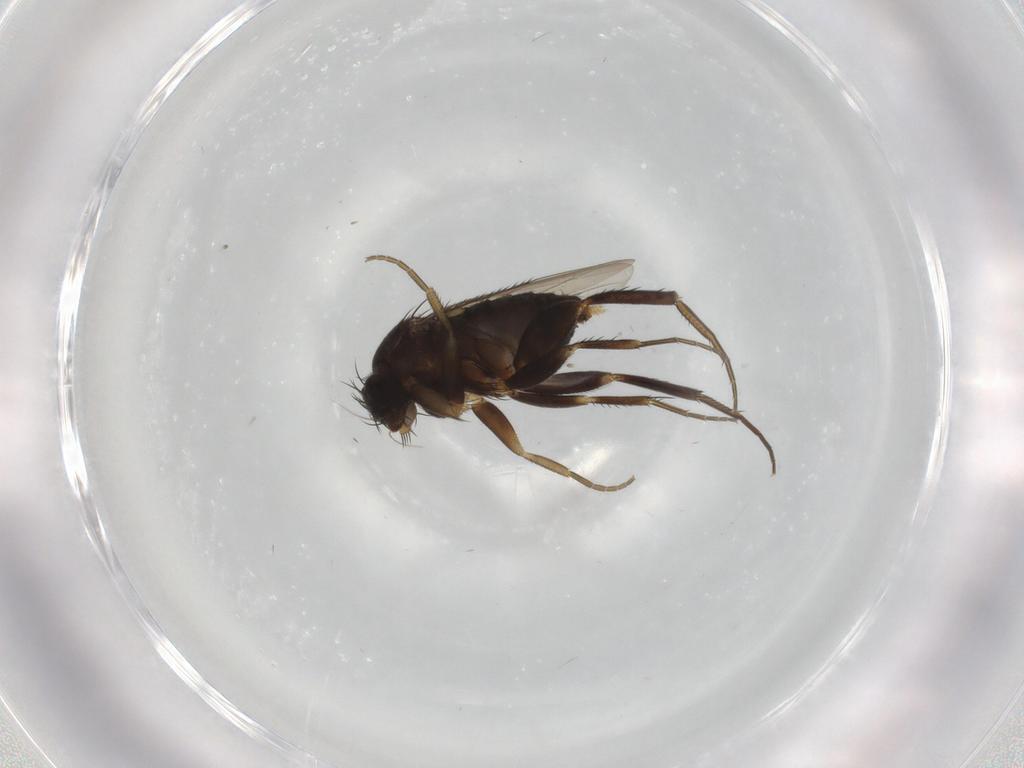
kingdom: Animalia
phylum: Arthropoda
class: Insecta
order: Diptera
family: Phoridae
